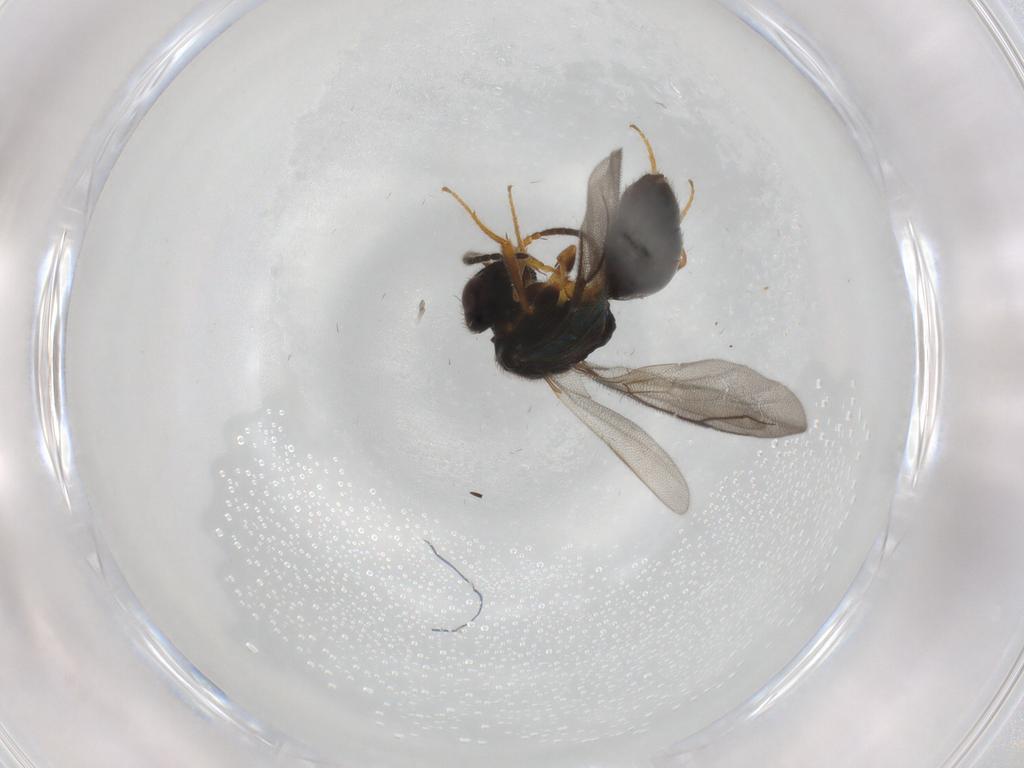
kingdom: Animalia
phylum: Arthropoda
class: Insecta
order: Hymenoptera
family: Bethylidae
